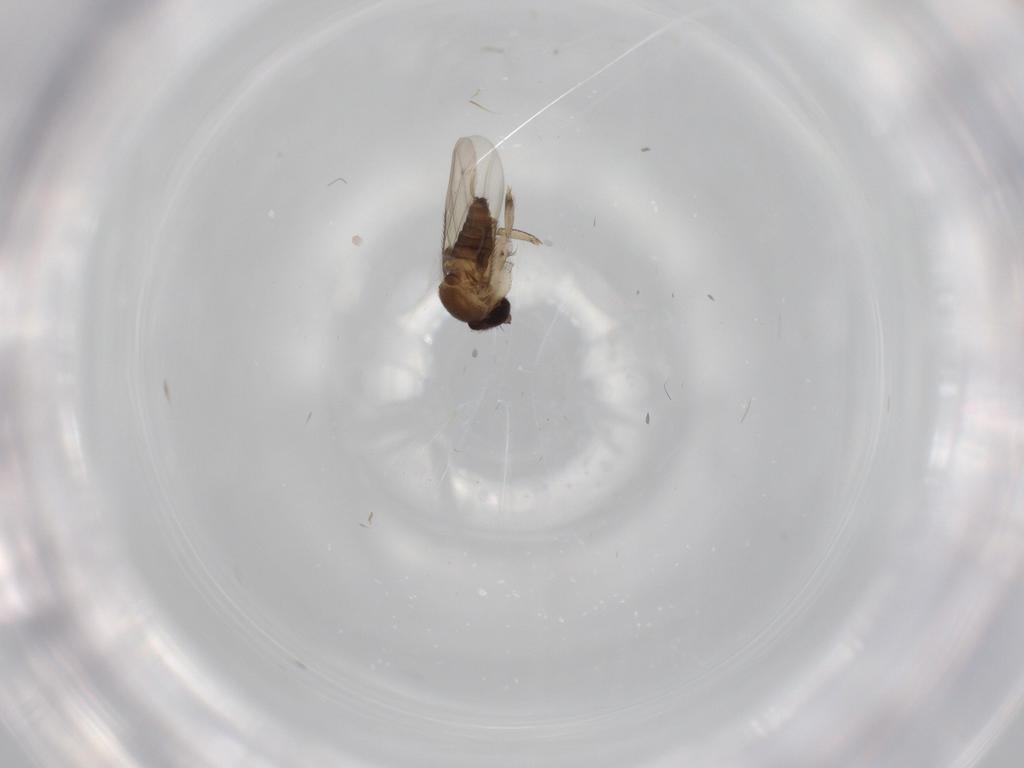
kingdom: Animalia
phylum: Arthropoda
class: Insecta
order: Diptera
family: Phoridae
